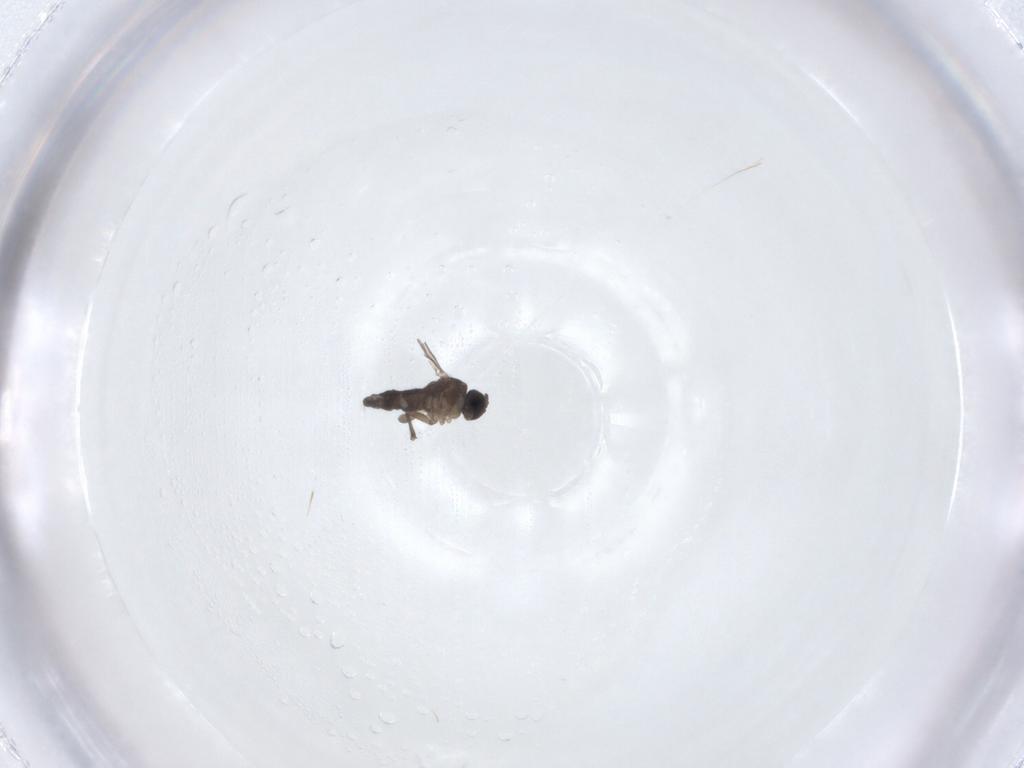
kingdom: Animalia
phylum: Arthropoda
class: Insecta
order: Diptera
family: Sciaridae
